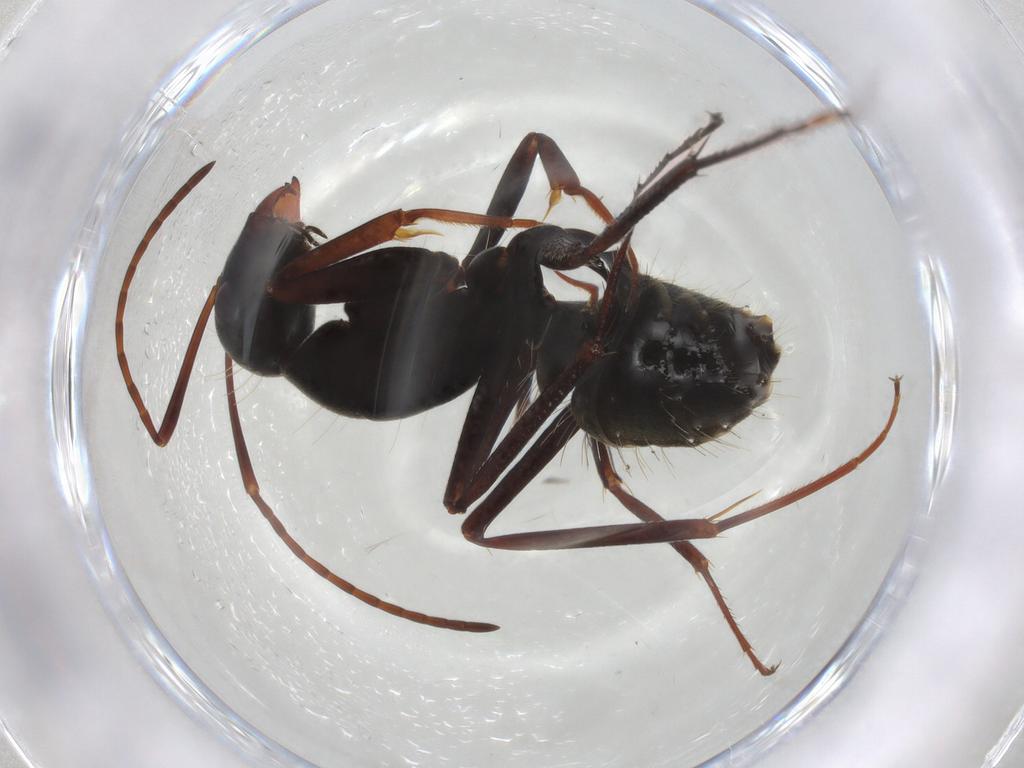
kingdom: Animalia
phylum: Arthropoda
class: Insecta
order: Hymenoptera
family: Formicidae
